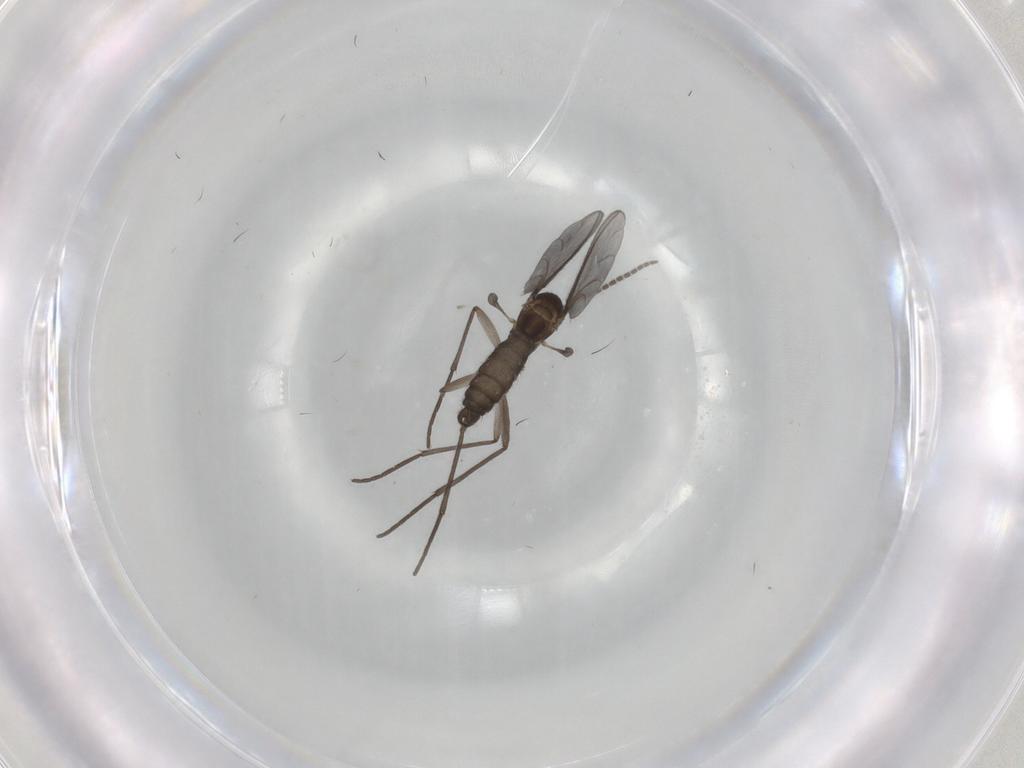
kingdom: Animalia
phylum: Arthropoda
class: Insecta
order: Diptera
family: Sciaridae
